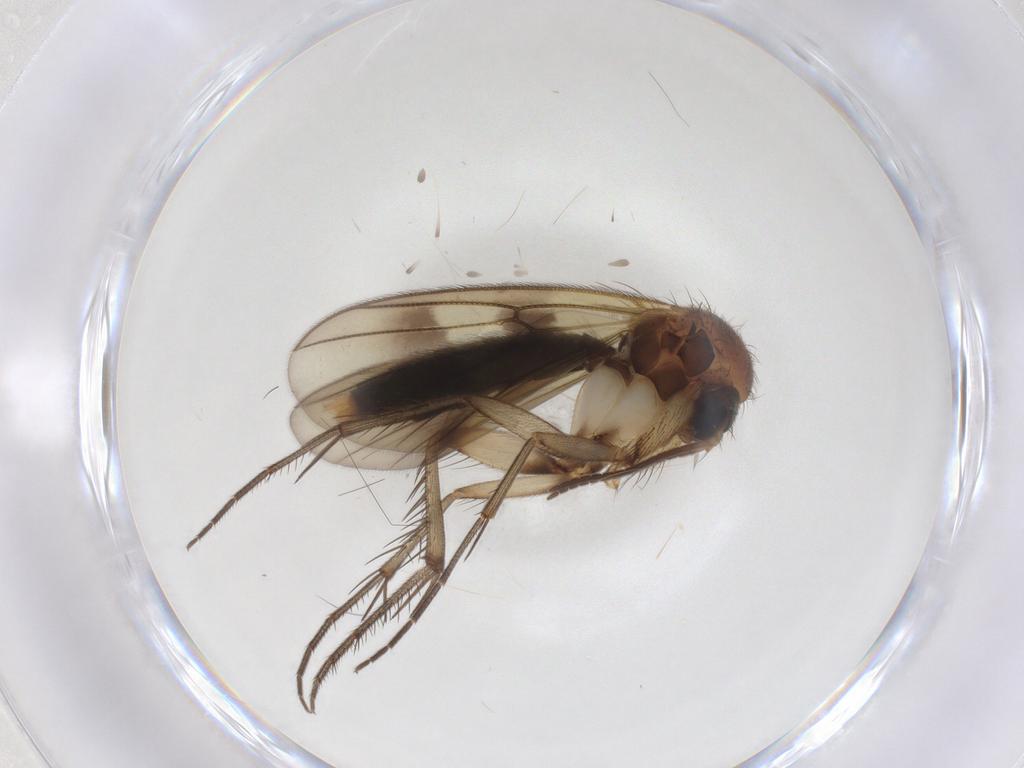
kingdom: Animalia
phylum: Arthropoda
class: Insecta
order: Diptera
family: Mycetophilidae
